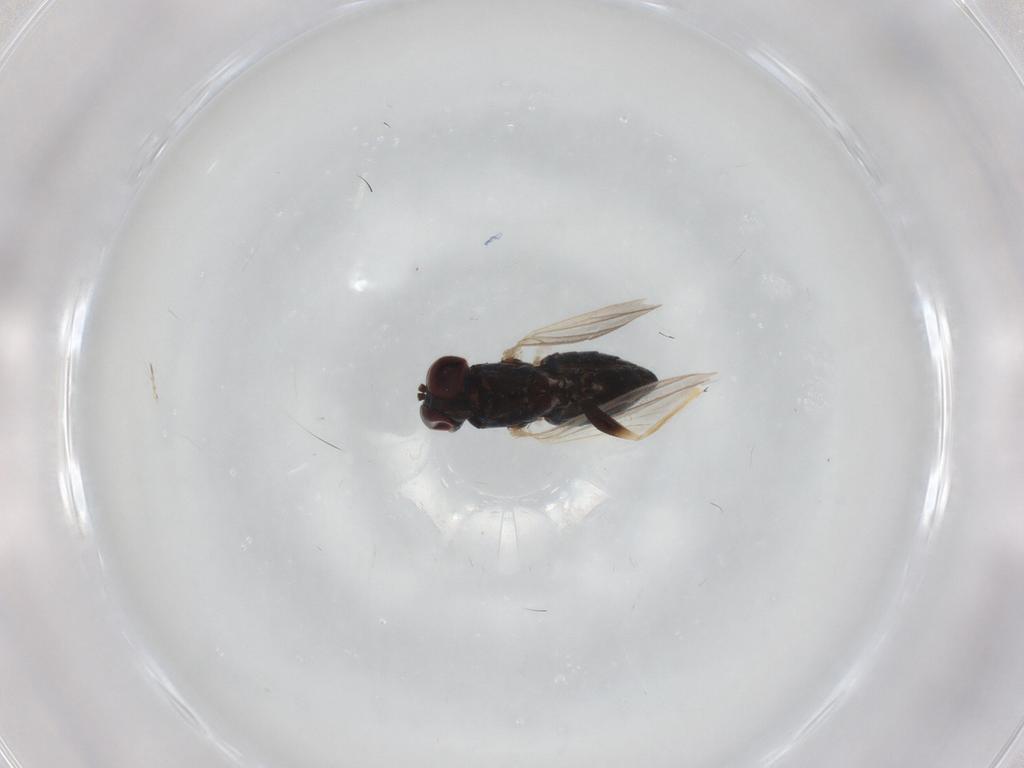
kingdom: Animalia
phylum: Arthropoda
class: Insecta
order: Diptera
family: Dolichopodidae
